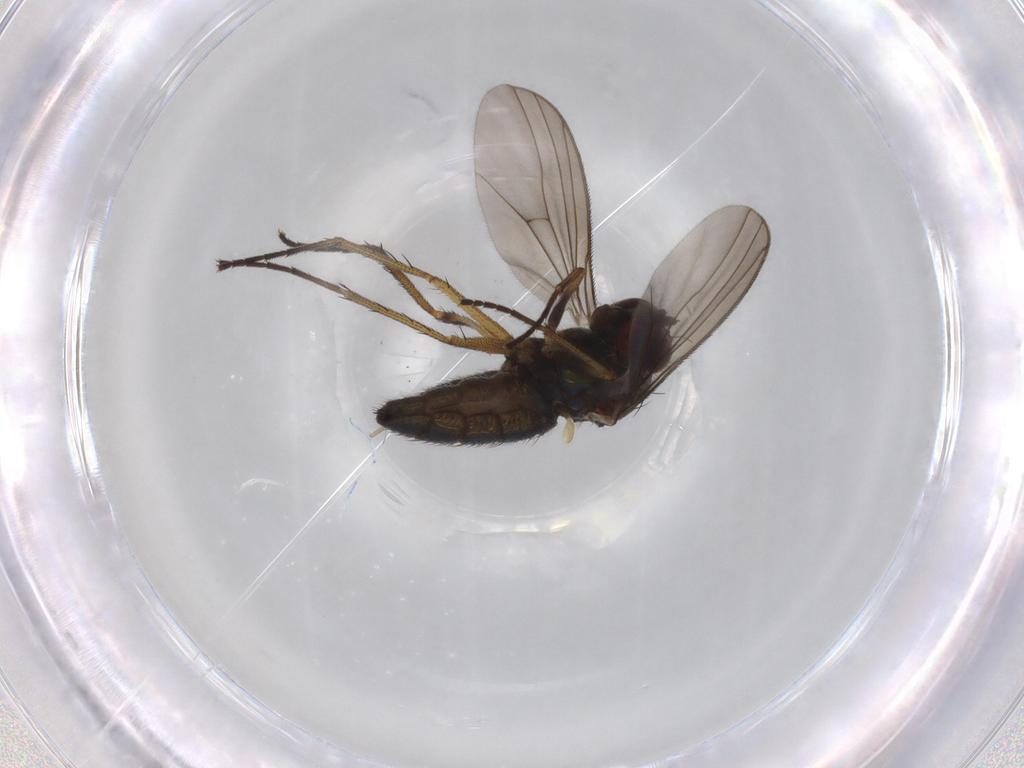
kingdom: Animalia
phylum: Arthropoda
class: Insecta
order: Diptera
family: Dolichopodidae
